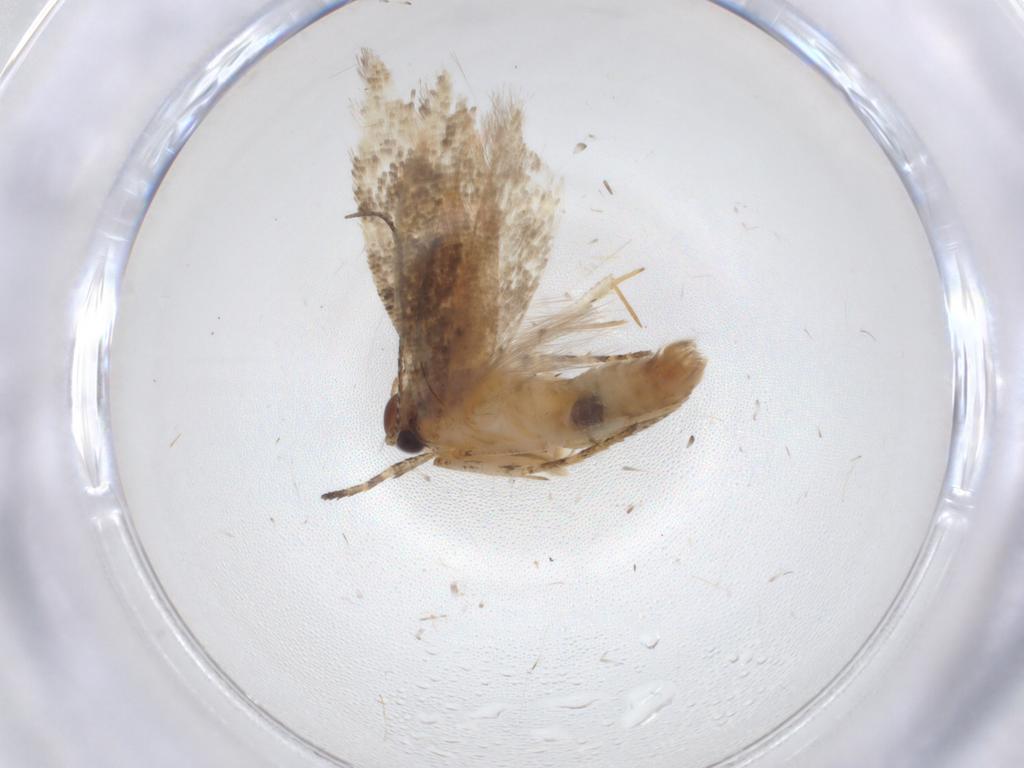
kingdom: Animalia
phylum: Arthropoda
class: Insecta
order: Lepidoptera
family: Gelechiidae
